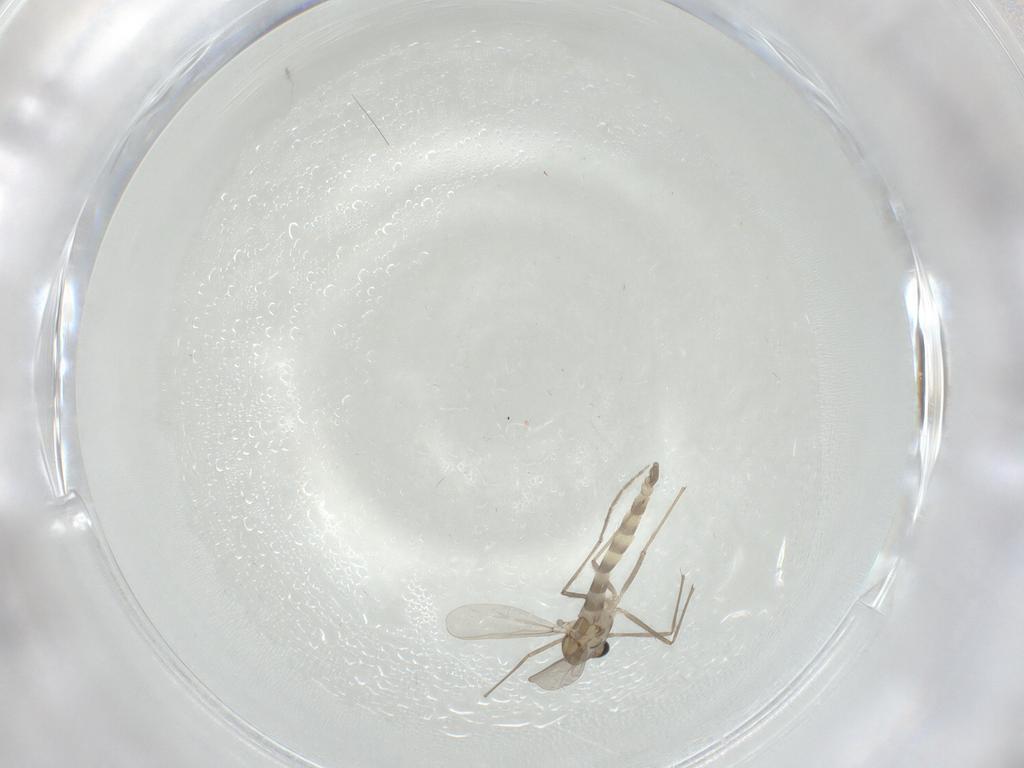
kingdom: Animalia
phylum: Arthropoda
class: Insecta
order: Diptera
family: Chironomidae
